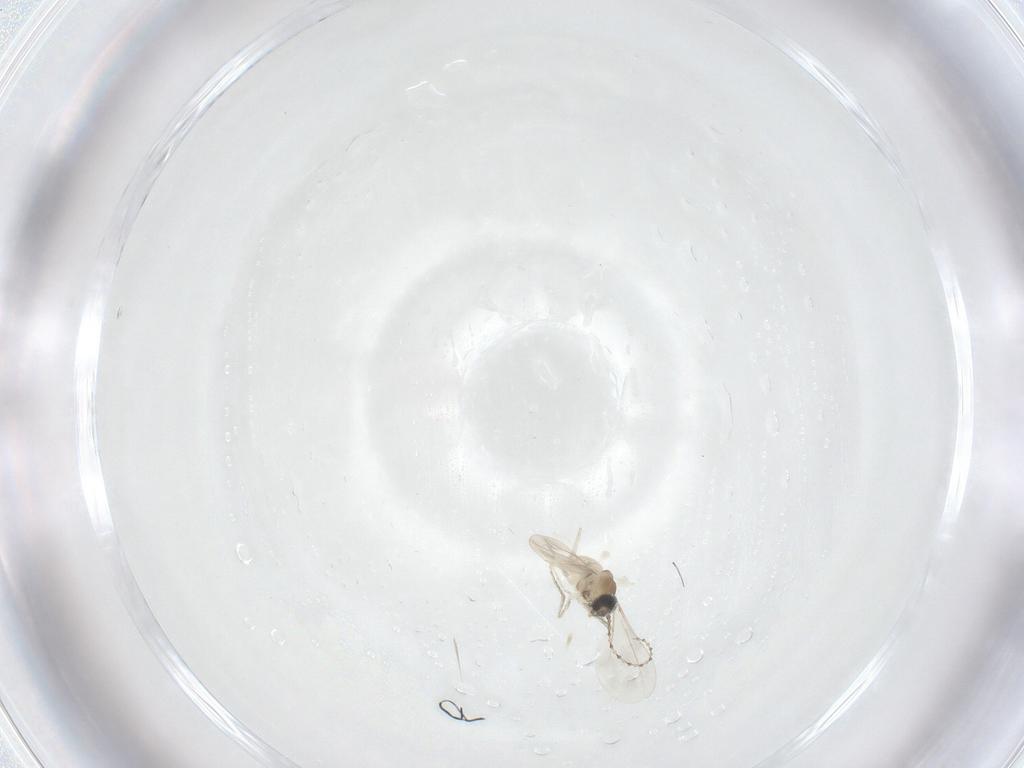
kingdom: Animalia
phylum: Arthropoda
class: Insecta
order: Diptera
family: Phoridae
